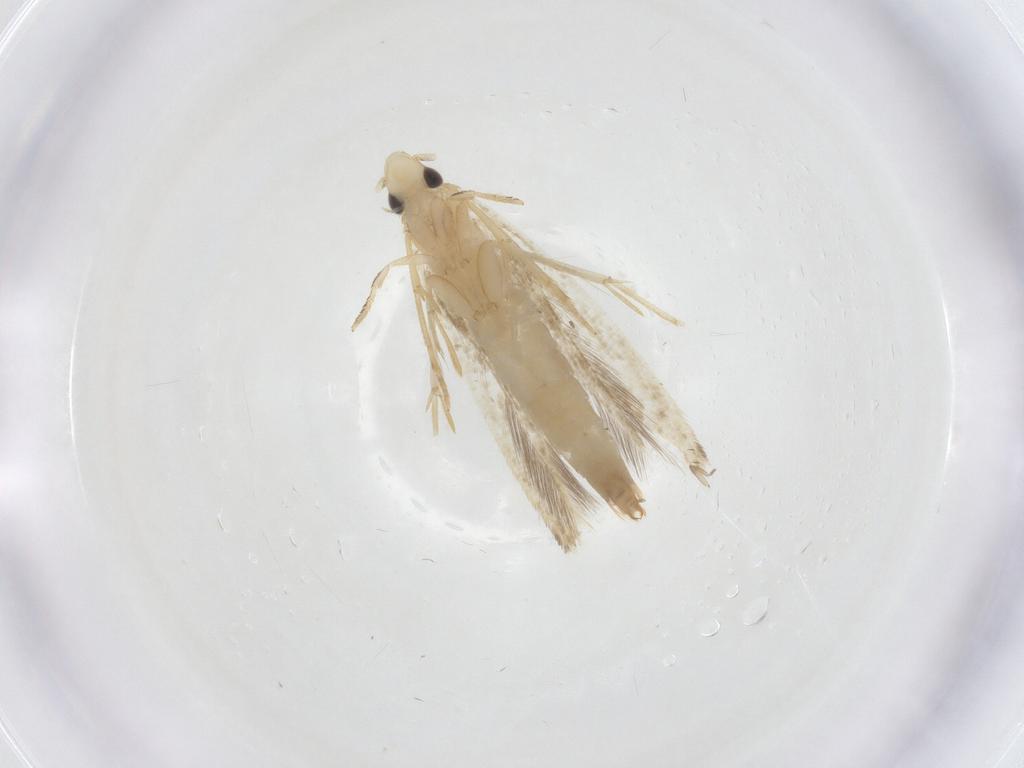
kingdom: Animalia
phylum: Arthropoda
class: Insecta
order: Lepidoptera
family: Tineidae
